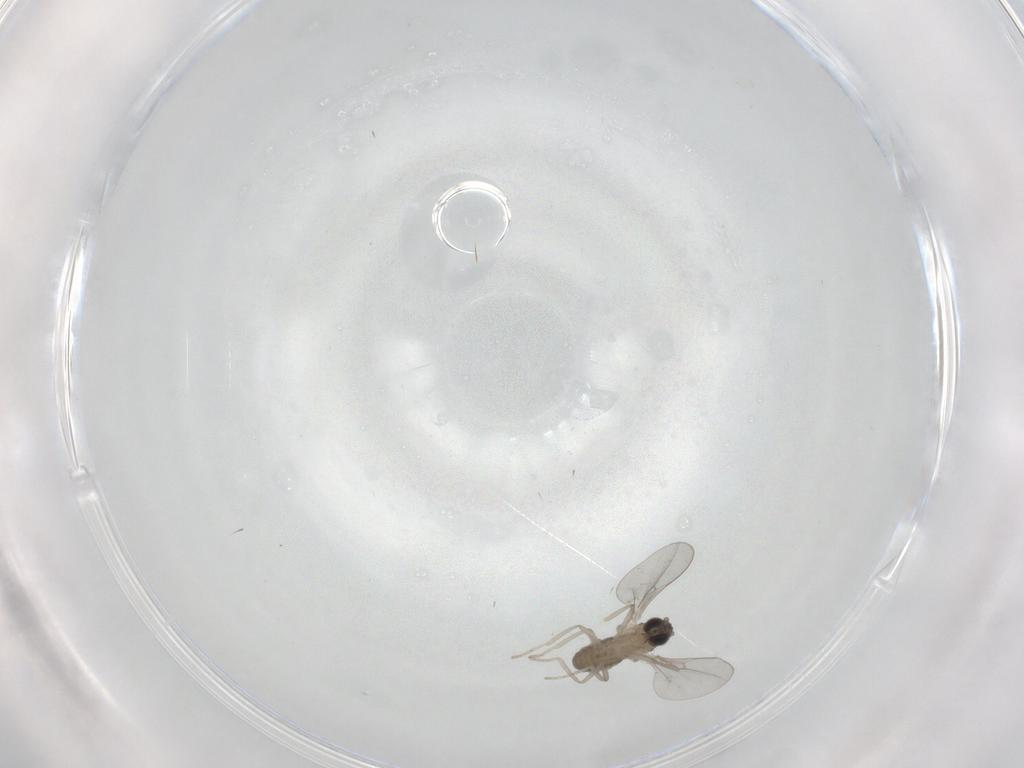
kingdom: Animalia
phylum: Arthropoda
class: Insecta
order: Diptera
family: Cecidomyiidae
